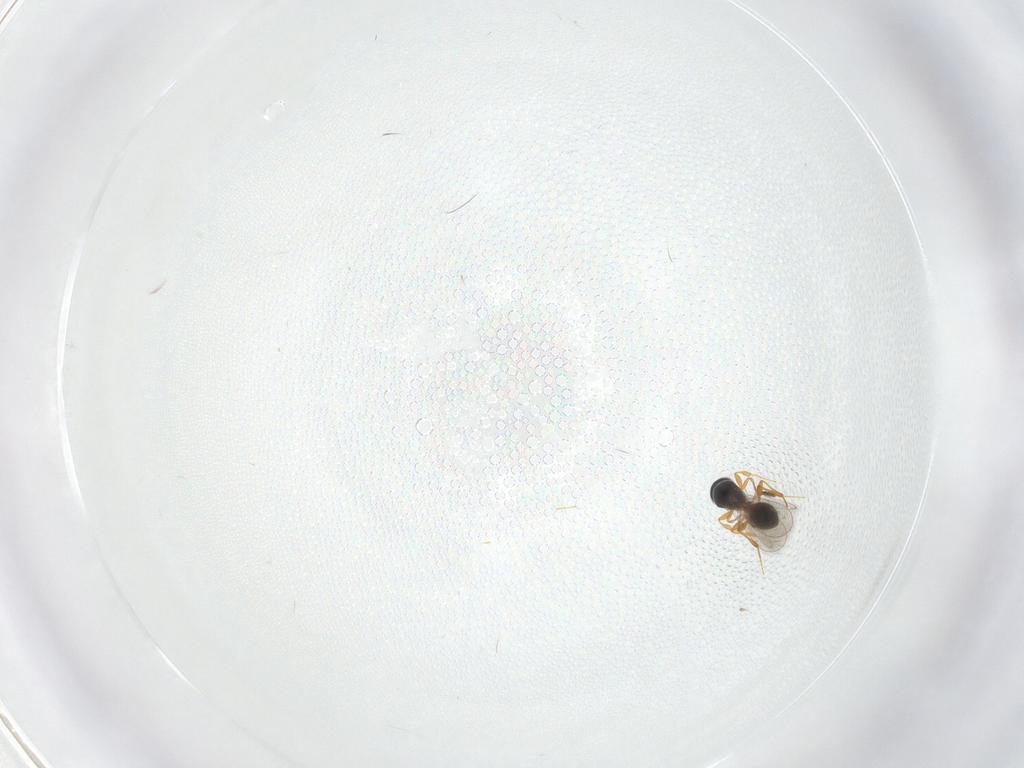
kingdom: Animalia
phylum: Arthropoda
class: Insecta
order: Hymenoptera
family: Platygastridae
